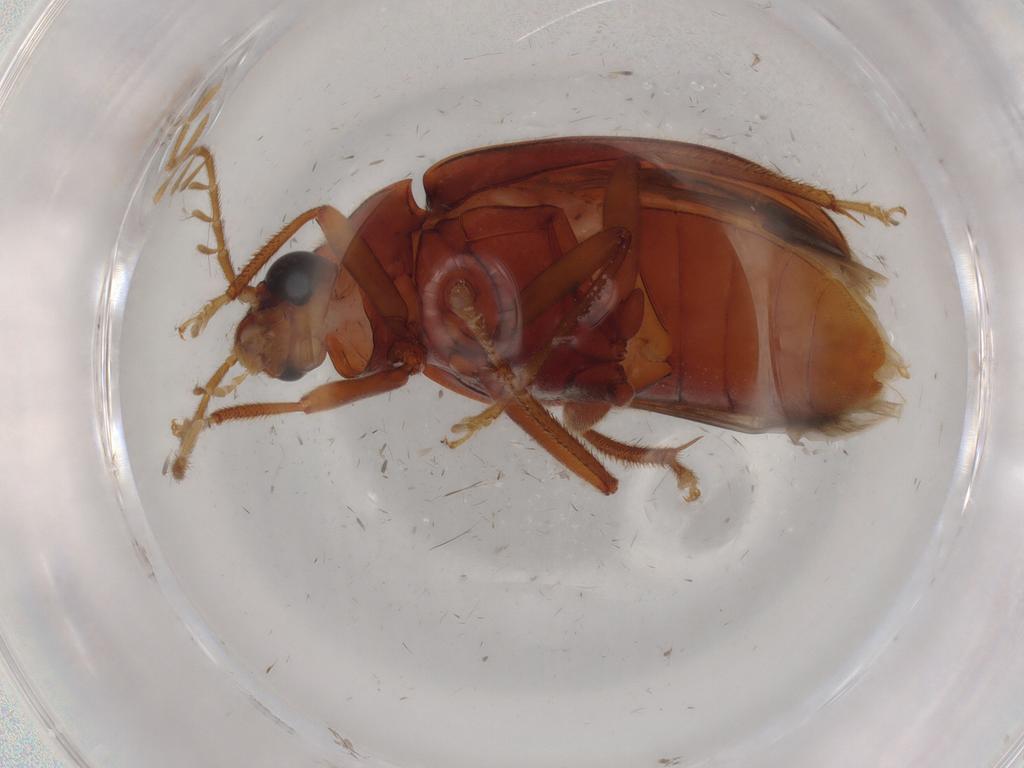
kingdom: Animalia
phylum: Arthropoda
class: Insecta
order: Coleoptera
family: Ptilodactylidae
